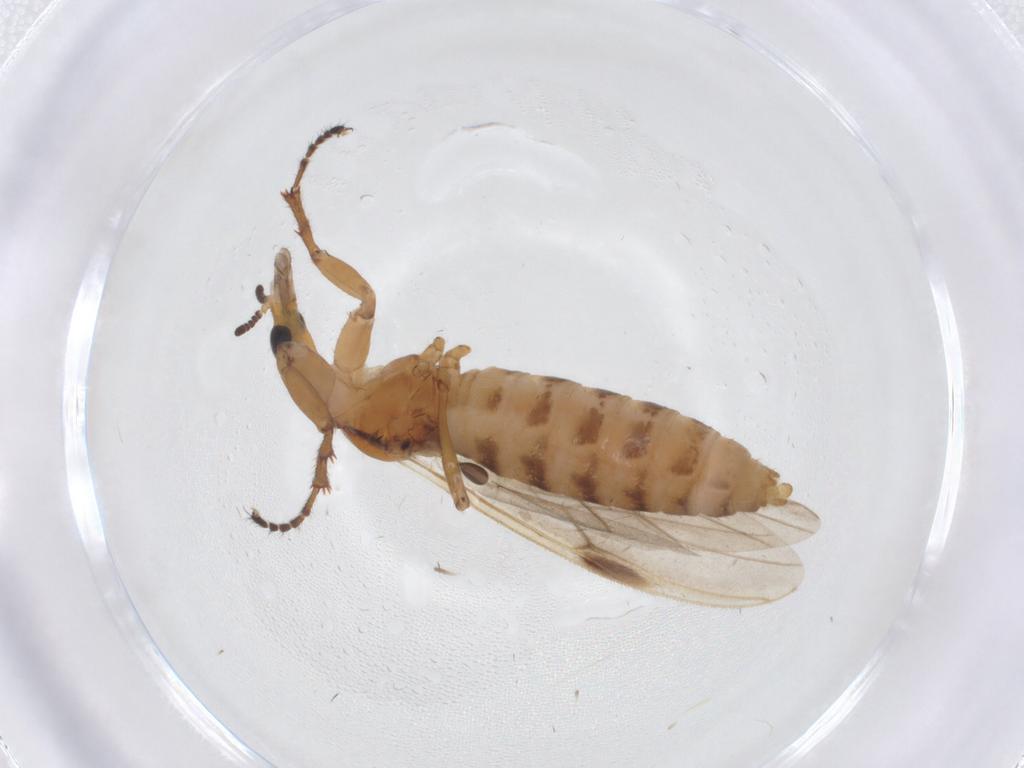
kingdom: Animalia
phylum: Arthropoda
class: Insecta
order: Diptera
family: Bibionidae
